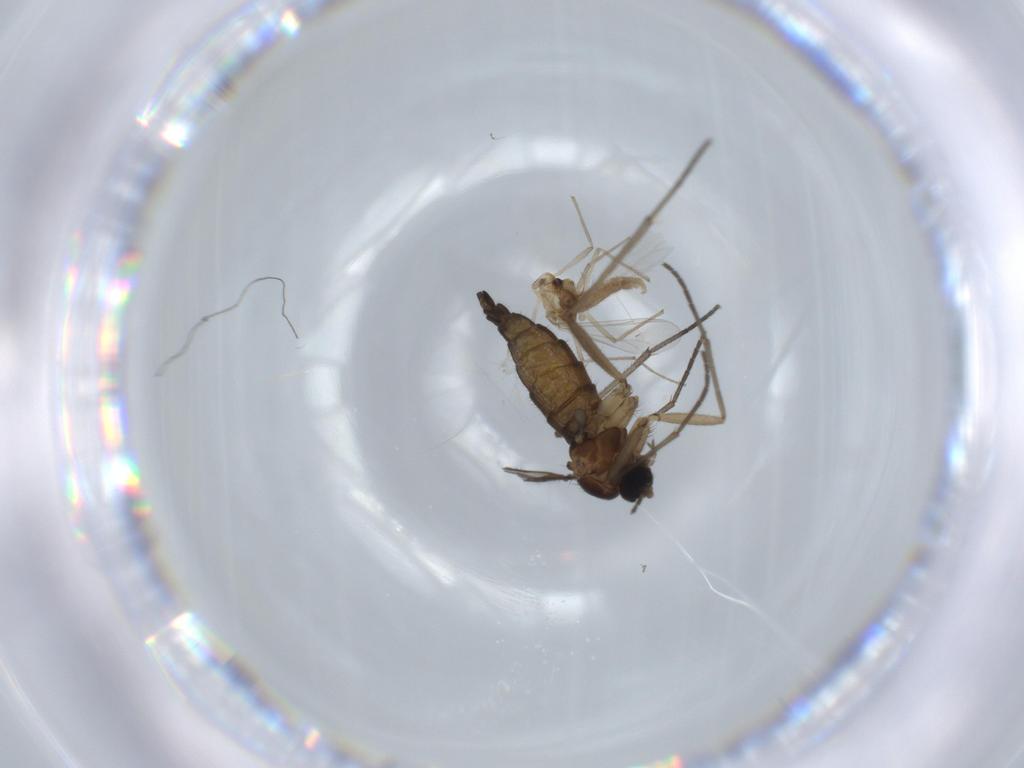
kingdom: Animalia
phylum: Arthropoda
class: Insecta
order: Diptera
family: Sciaridae
